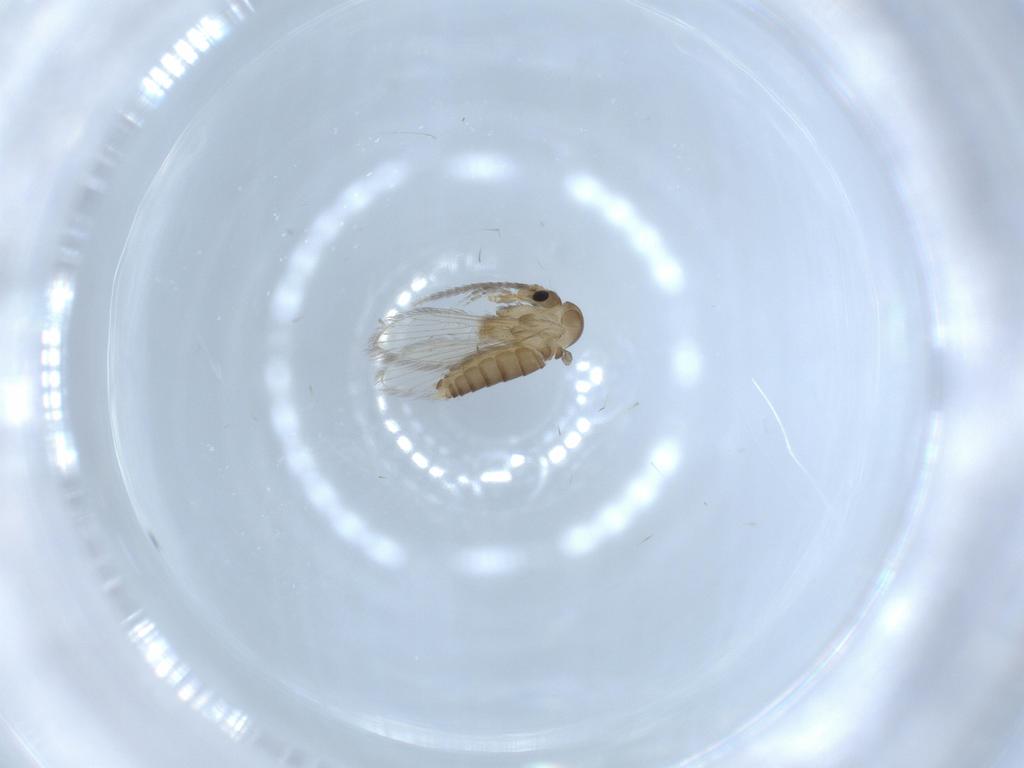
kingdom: Animalia
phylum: Arthropoda
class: Insecta
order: Diptera
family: Psychodidae
